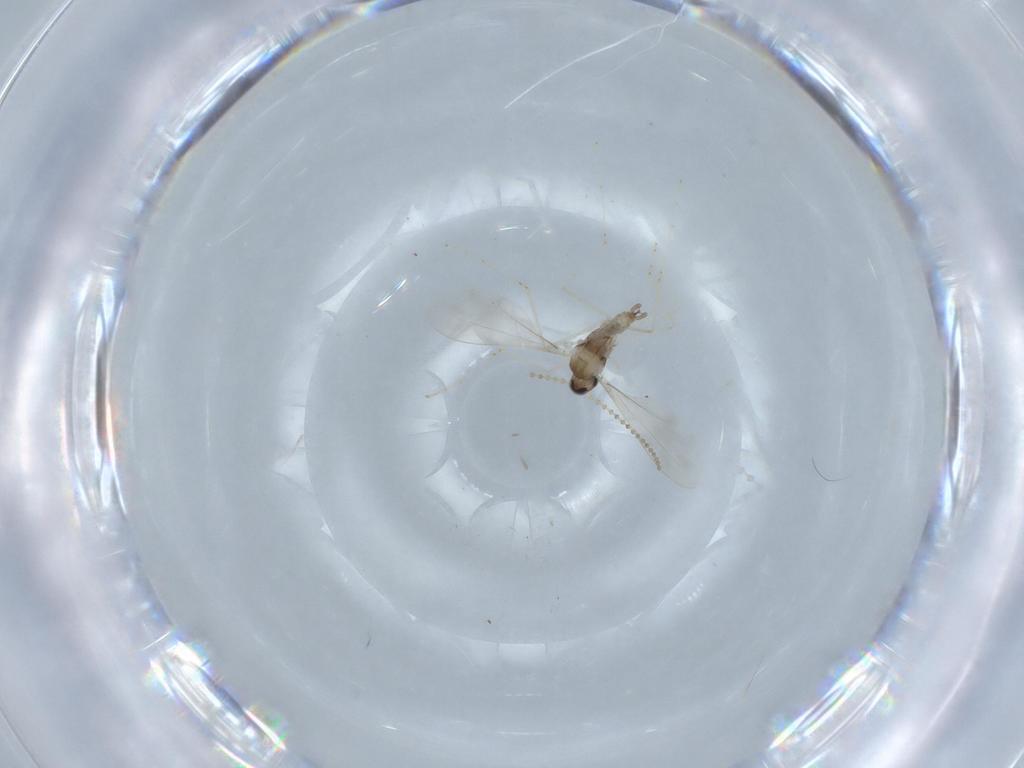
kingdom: Animalia
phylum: Arthropoda
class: Insecta
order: Diptera
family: Cecidomyiidae
